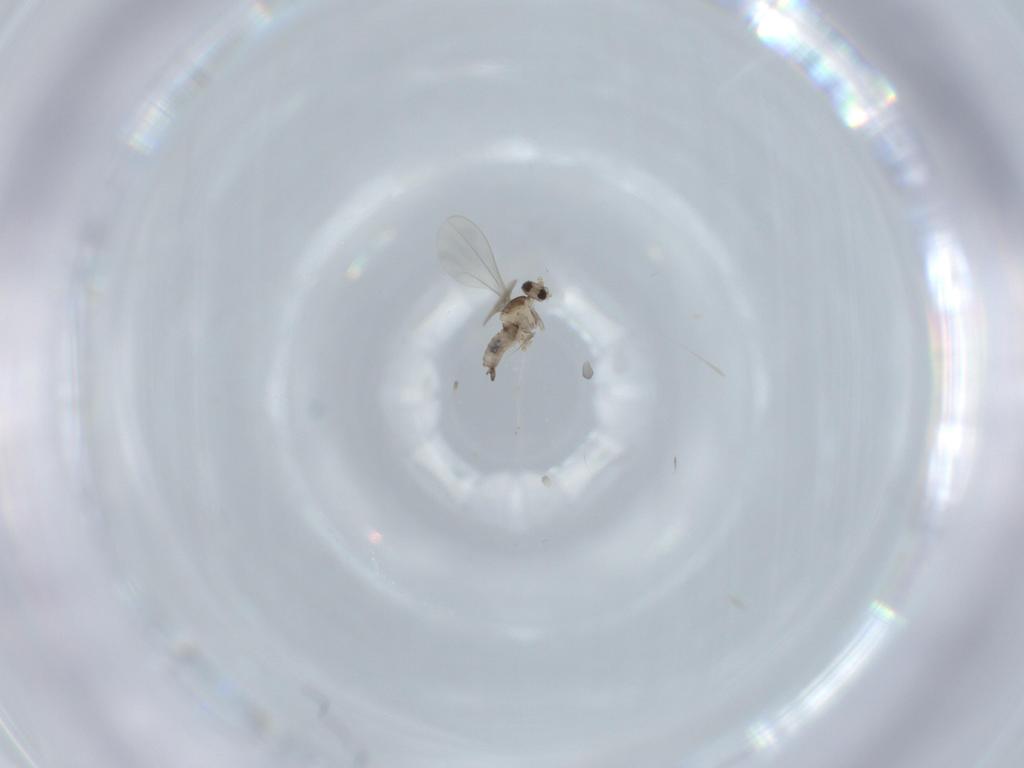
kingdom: Animalia
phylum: Arthropoda
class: Insecta
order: Diptera
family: Cecidomyiidae
